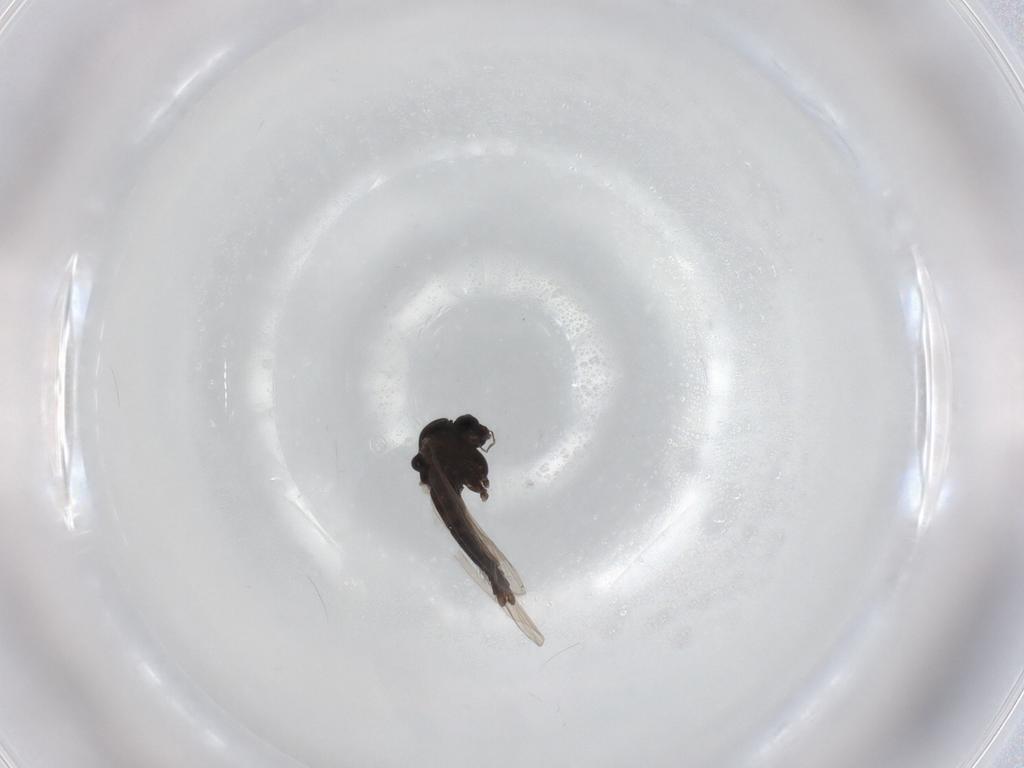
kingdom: Animalia
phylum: Arthropoda
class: Insecta
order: Diptera
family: Chironomidae
